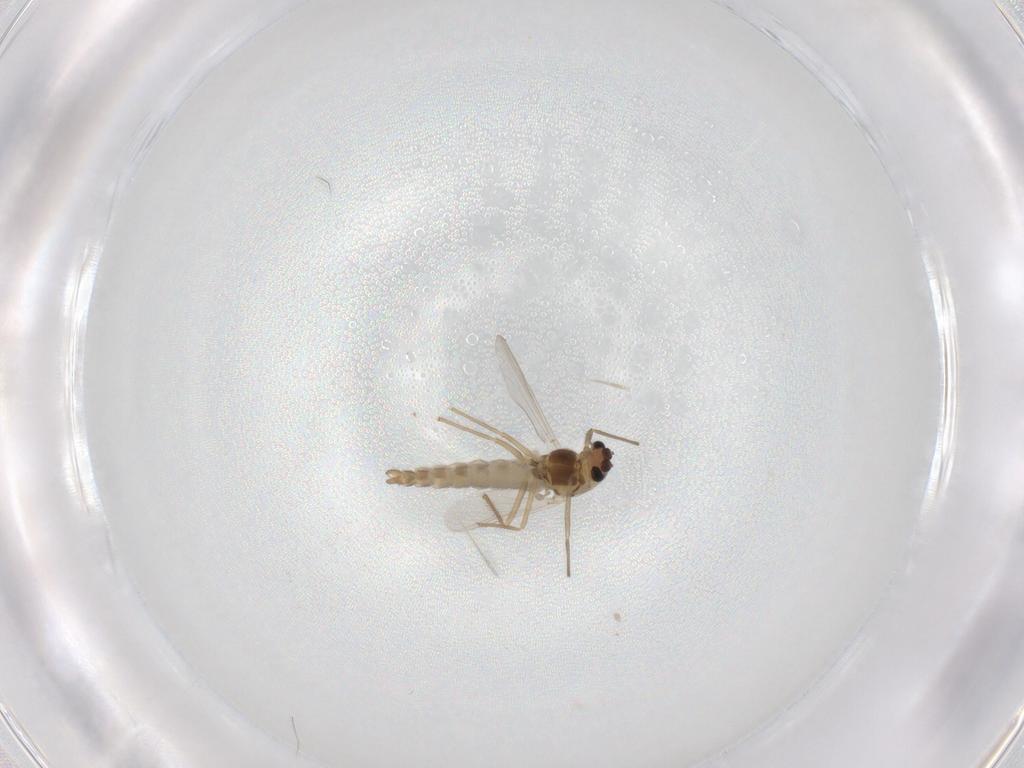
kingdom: Animalia
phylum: Arthropoda
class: Insecta
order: Diptera
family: Chironomidae
